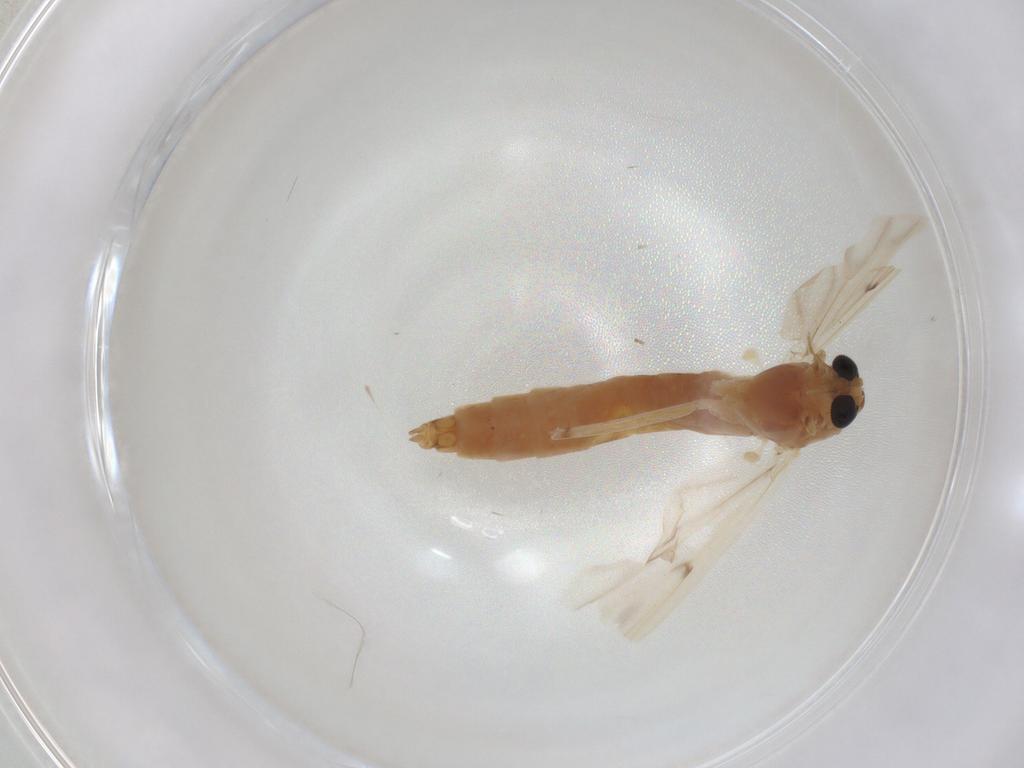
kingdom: Animalia
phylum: Arthropoda
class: Insecta
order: Diptera
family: Chironomidae
